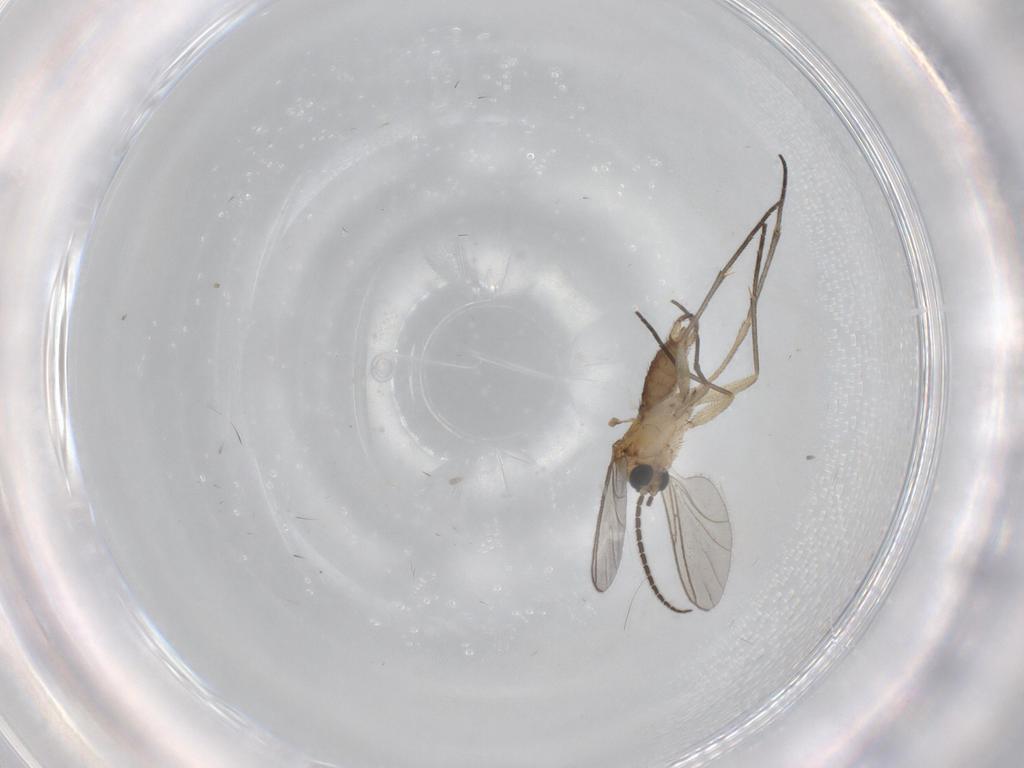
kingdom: Animalia
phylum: Arthropoda
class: Insecta
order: Diptera
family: Sciaridae
